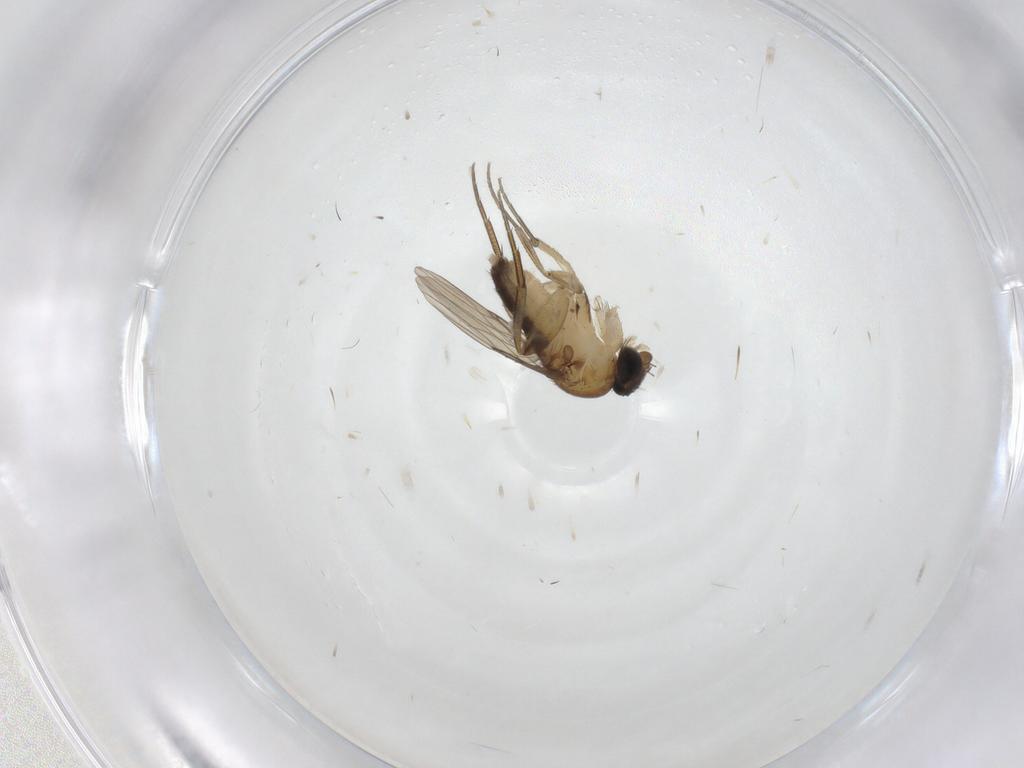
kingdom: Animalia
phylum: Arthropoda
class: Insecta
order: Diptera
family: Phoridae
